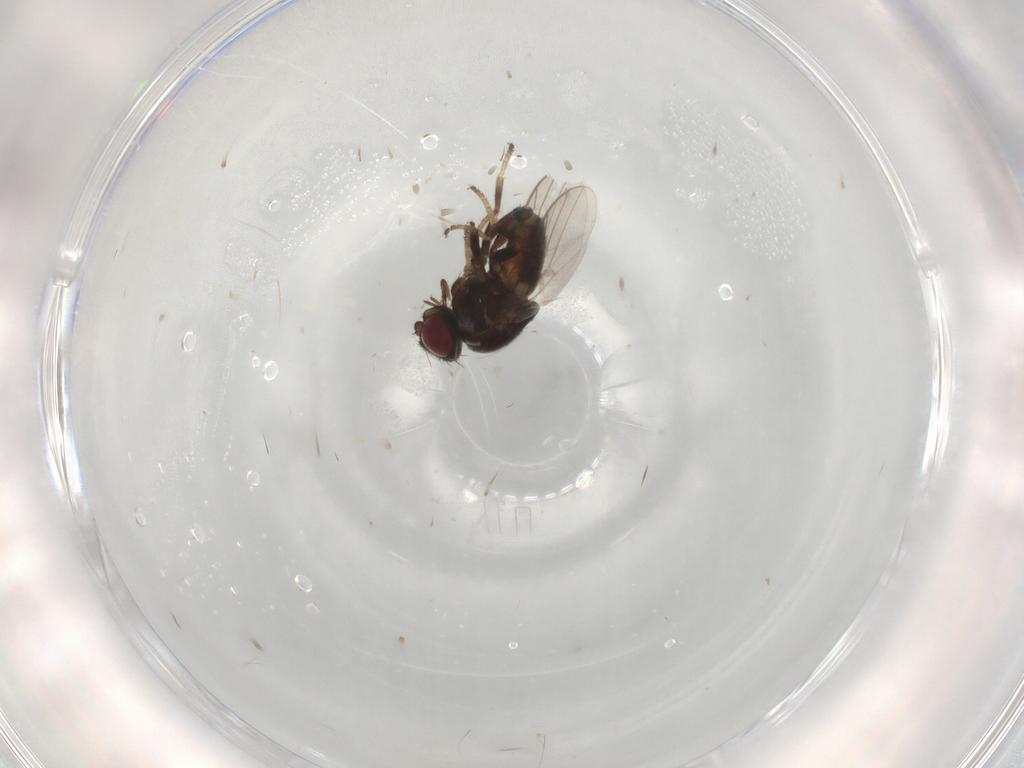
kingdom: Animalia
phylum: Arthropoda
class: Insecta
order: Diptera
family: Chloropidae
